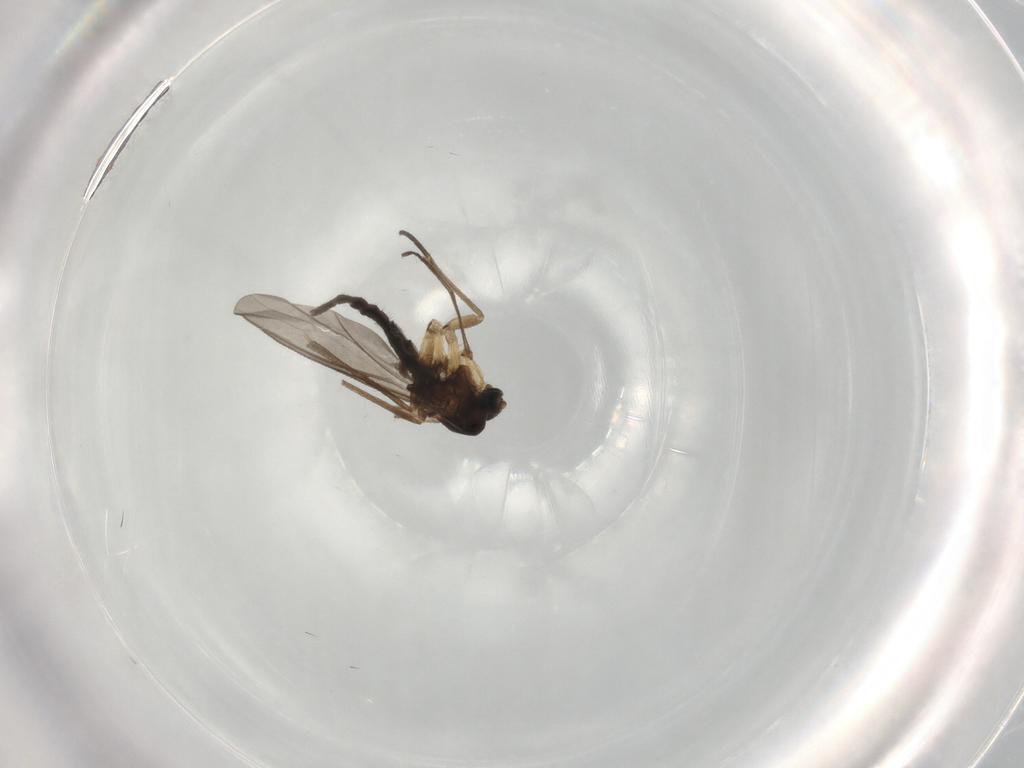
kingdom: Animalia
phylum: Arthropoda
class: Insecta
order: Diptera
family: Sciaridae
